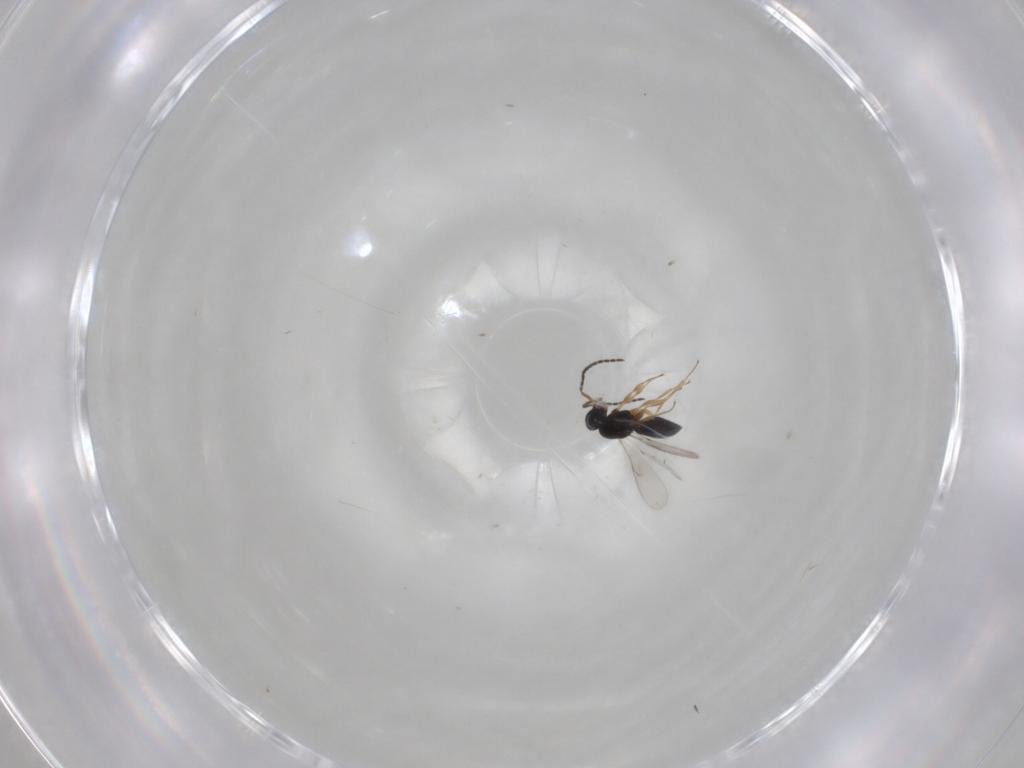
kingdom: Animalia
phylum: Arthropoda
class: Insecta
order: Hymenoptera
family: Scelionidae
